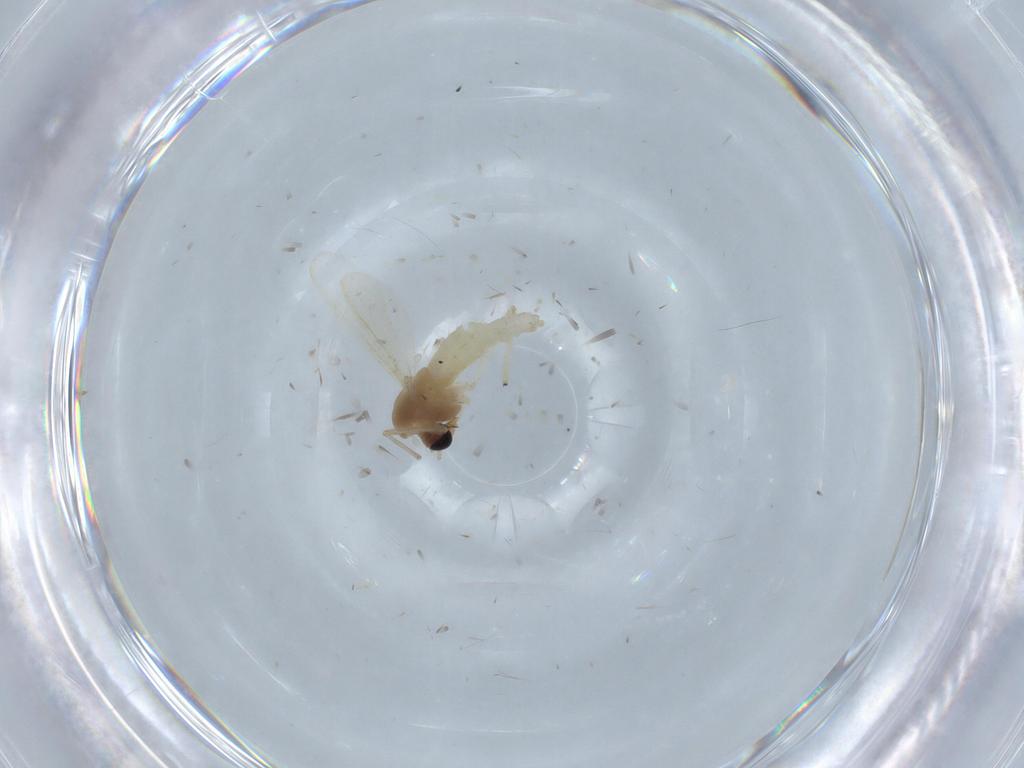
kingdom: Animalia
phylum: Arthropoda
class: Insecta
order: Diptera
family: Chironomidae
